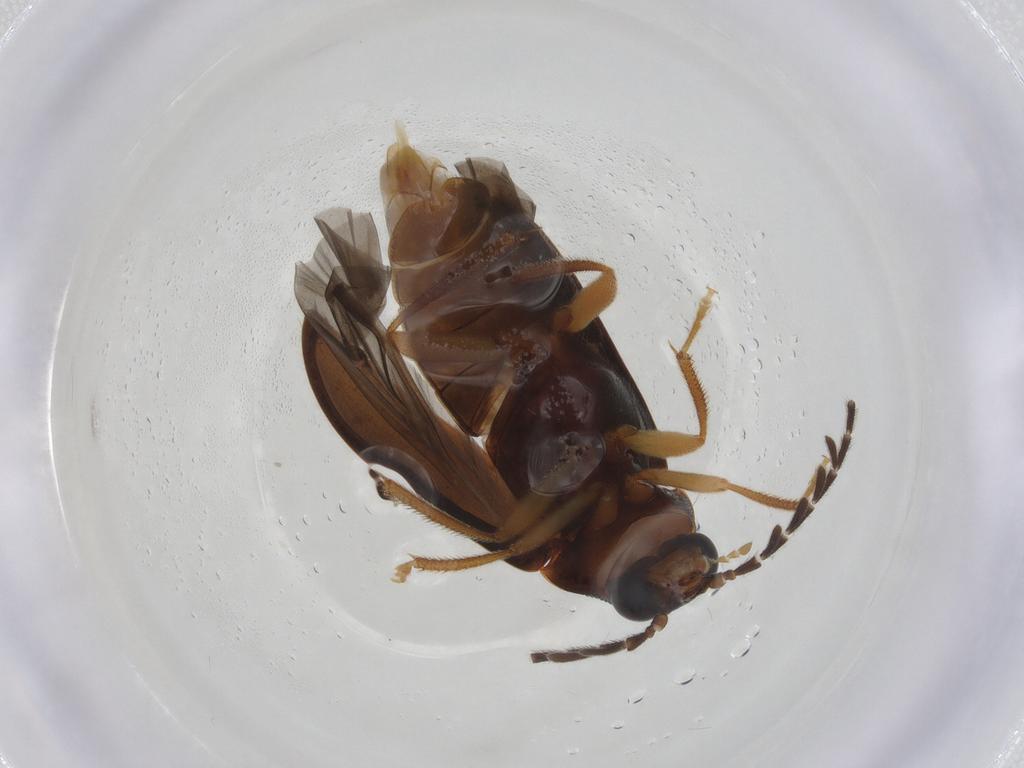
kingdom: Animalia
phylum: Arthropoda
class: Insecta
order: Coleoptera
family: Ptilodactylidae
